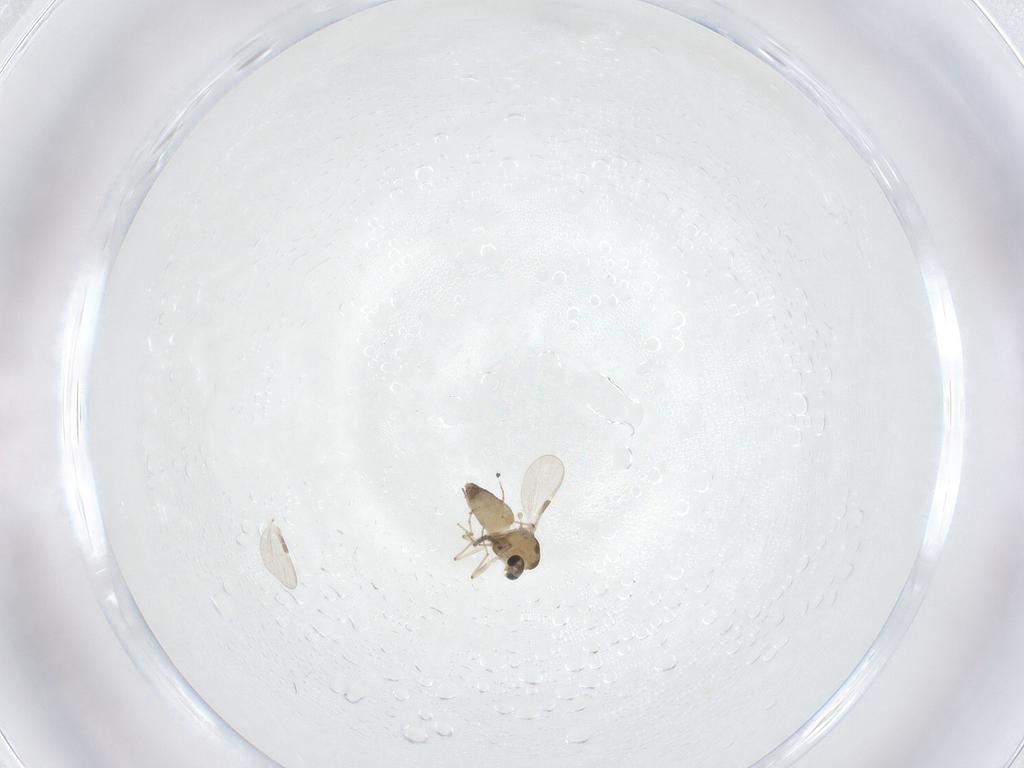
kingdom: Animalia
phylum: Arthropoda
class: Insecta
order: Diptera
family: Chironomidae
